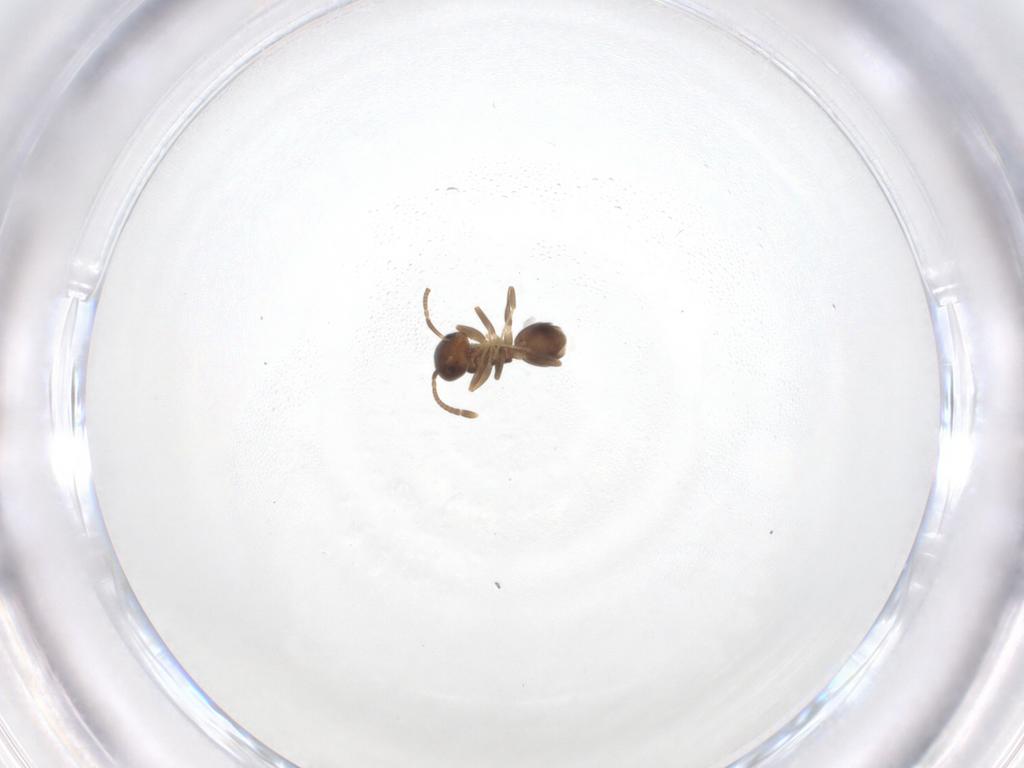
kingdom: Animalia
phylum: Arthropoda
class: Insecta
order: Hymenoptera
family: Formicidae
